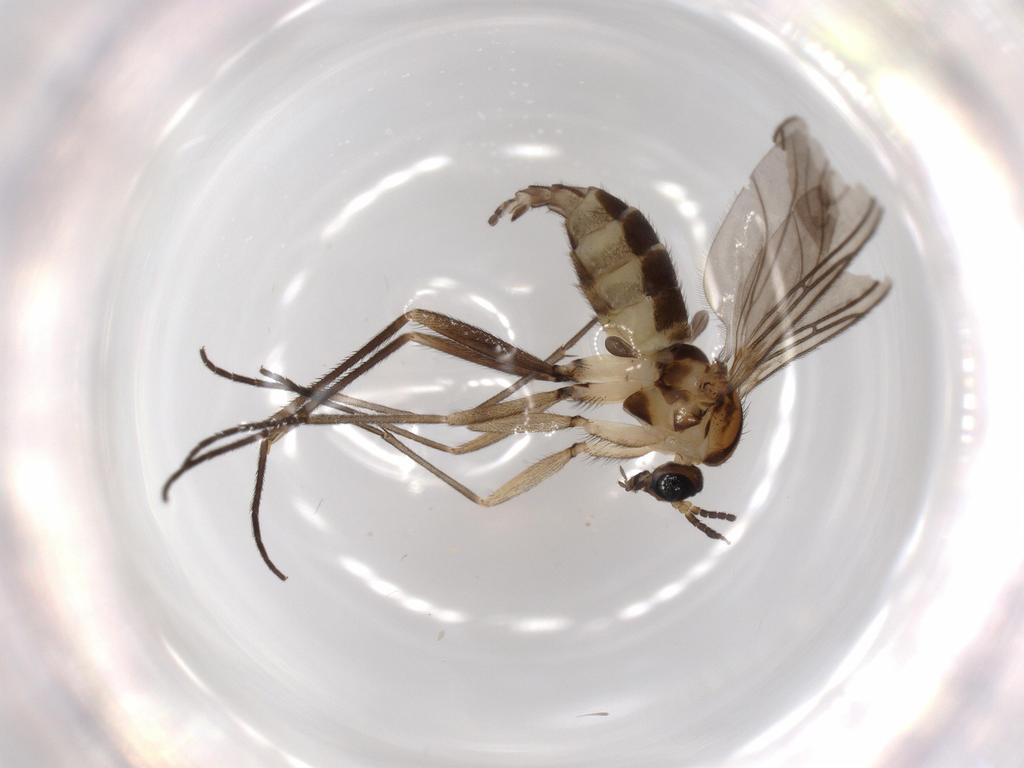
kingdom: Animalia
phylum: Arthropoda
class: Insecta
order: Diptera
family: Sciaridae
